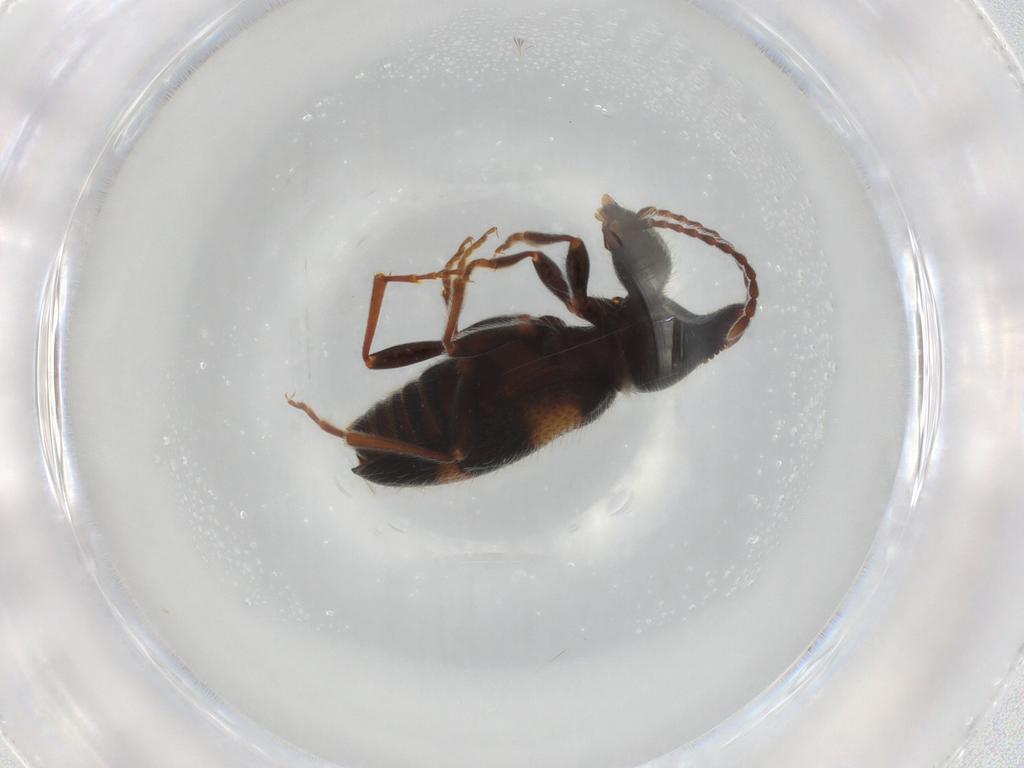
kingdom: Animalia
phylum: Arthropoda
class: Insecta
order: Coleoptera
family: Anthicidae
